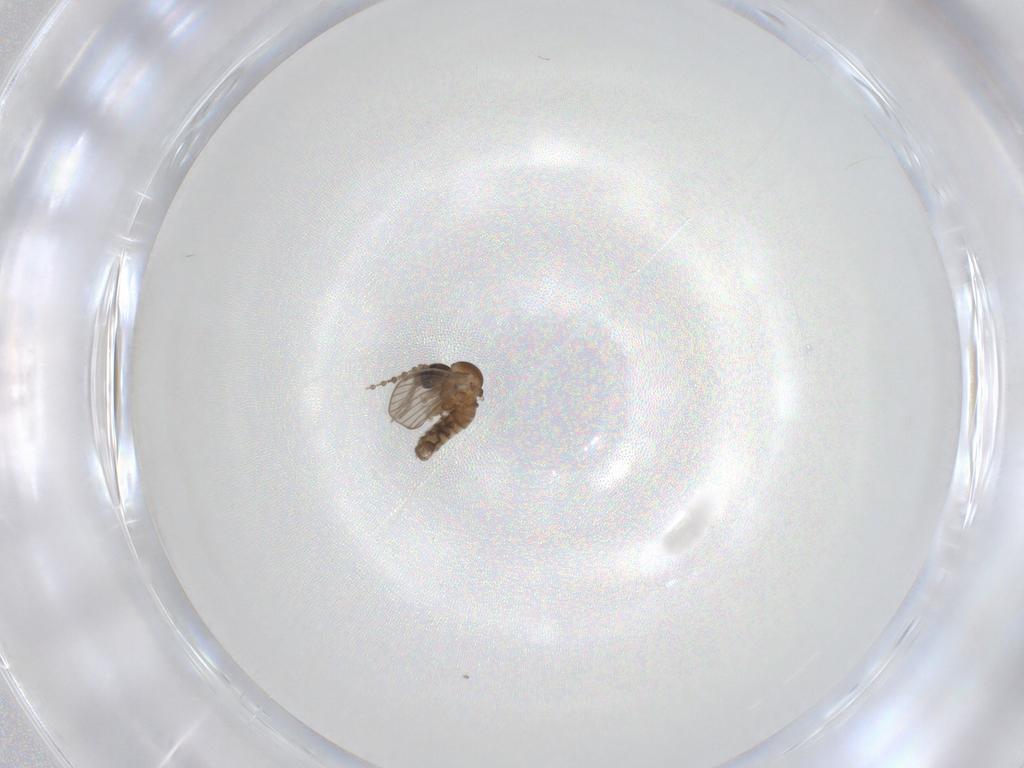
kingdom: Animalia
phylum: Arthropoda
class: Insecta
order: Diptera
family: Psychodidae
